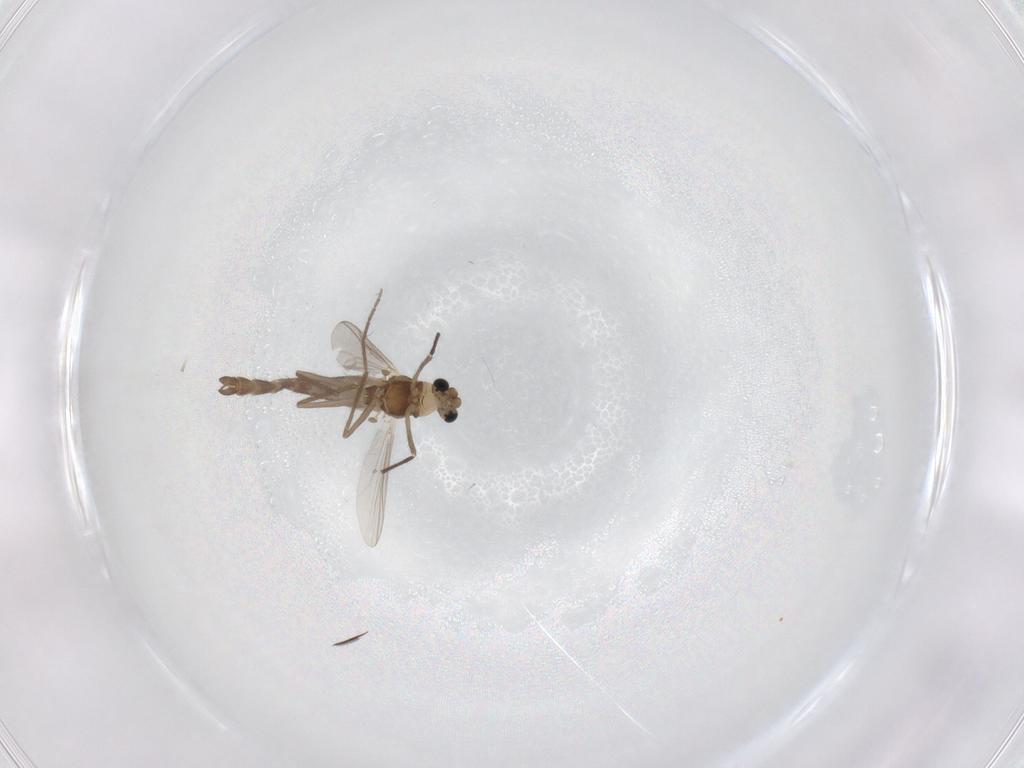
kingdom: Animalia
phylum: Arthropoda
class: Insecta
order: Diptera
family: Chironomidae
